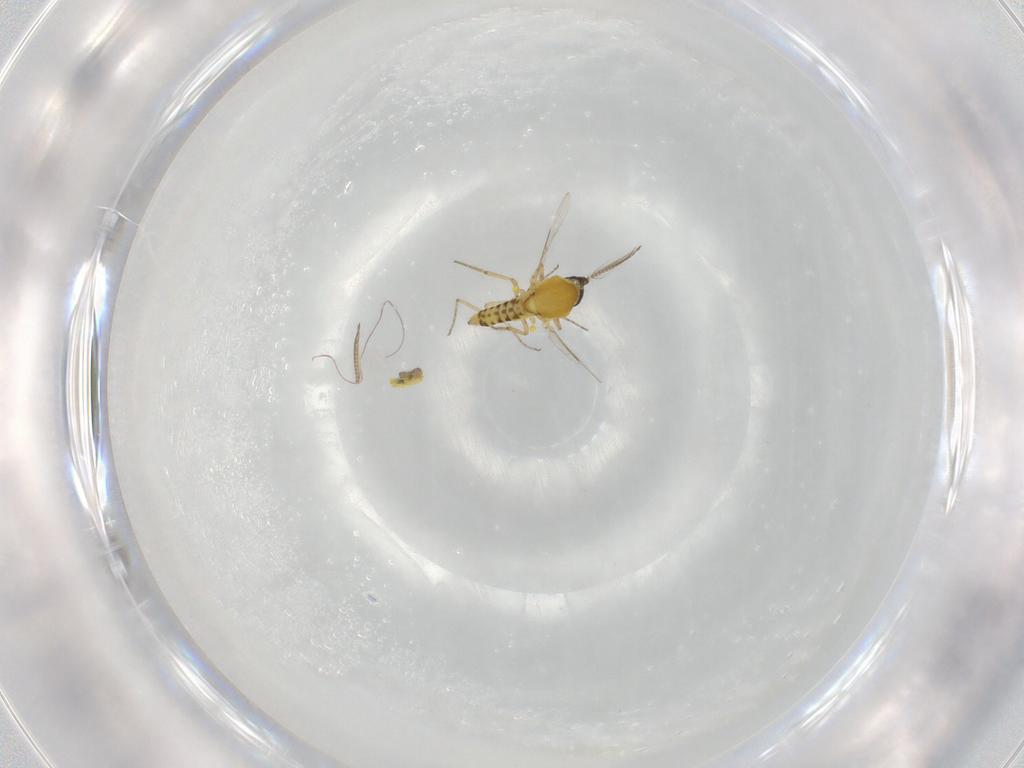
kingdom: Animalia
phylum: Arthropoda
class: Insecta
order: Diptera
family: Ceratopogonidae
